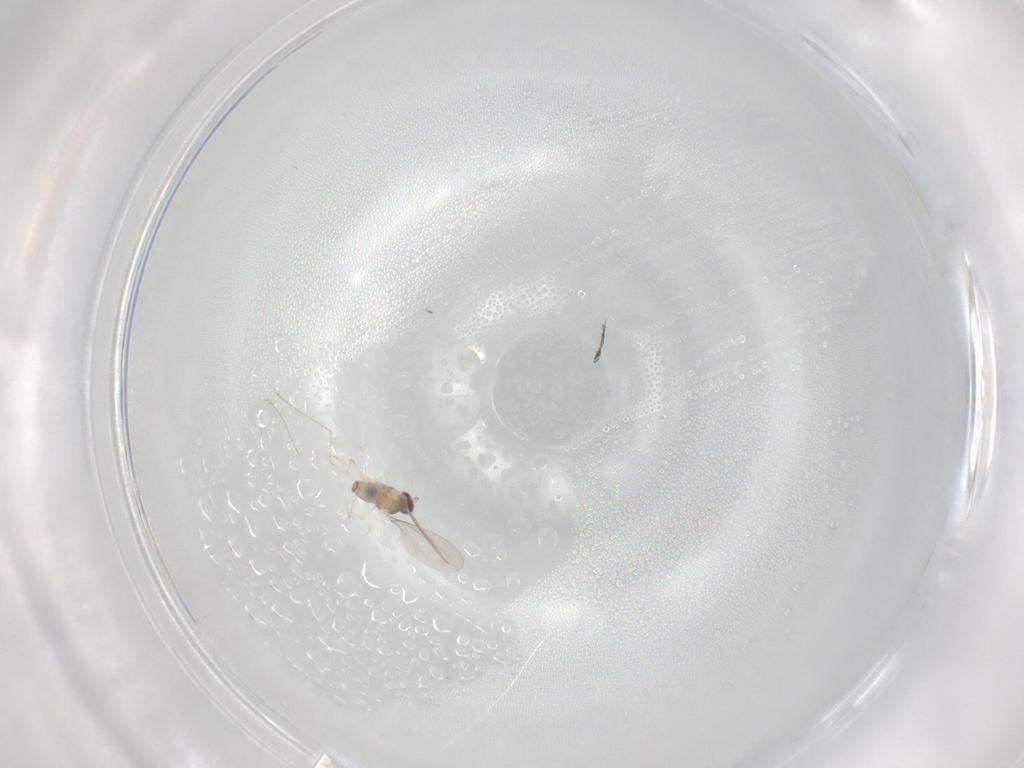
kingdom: Animalia
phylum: Arthropoda
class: Insecta
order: Diptera
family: Cecidomyiidae
